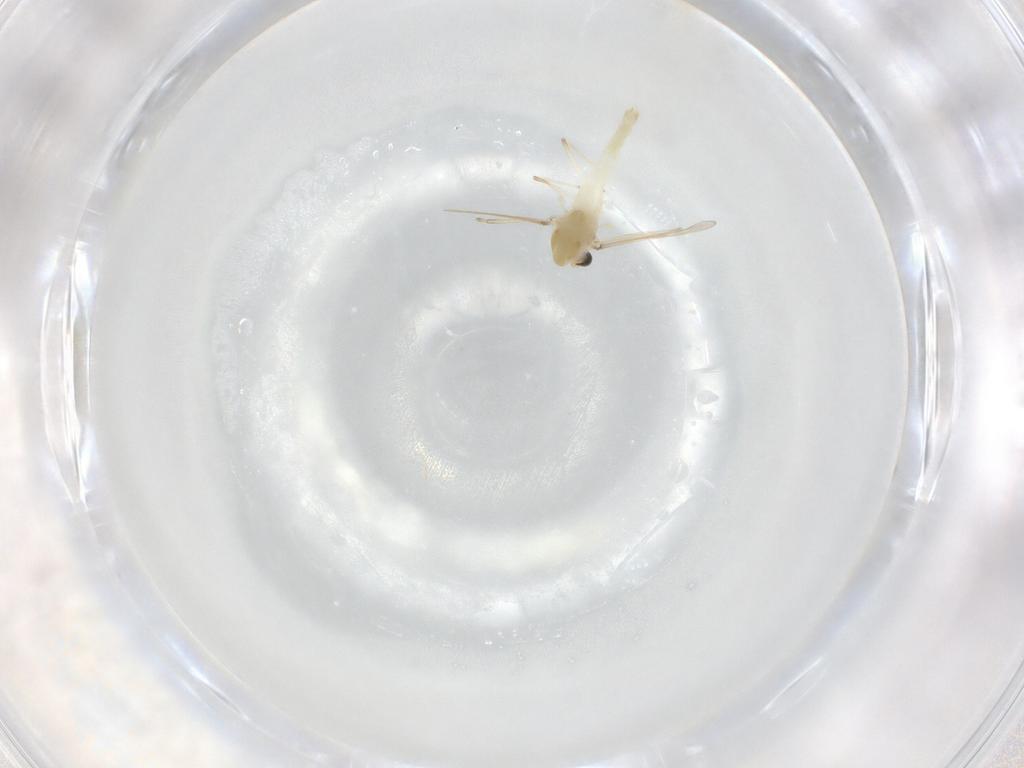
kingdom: Animalia
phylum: Arthropoda
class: Insecta
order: Diptera
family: Chironomidae
